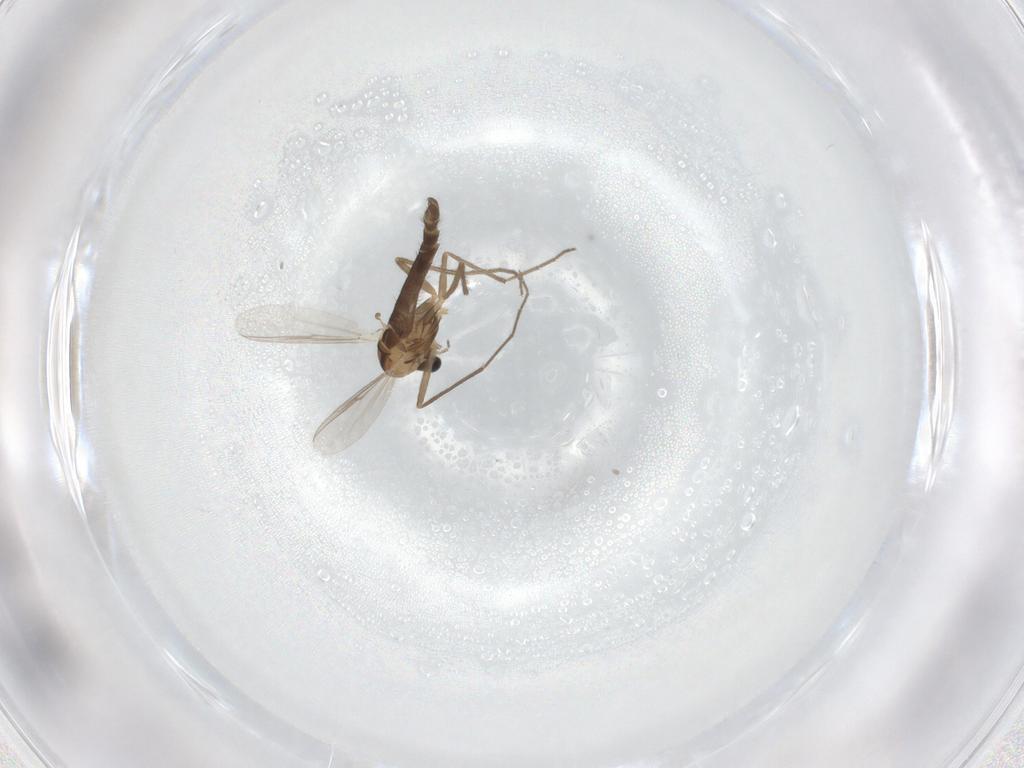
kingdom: Animalia
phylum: Arthropoda
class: Insecta
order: Diptera
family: Chironomidae
